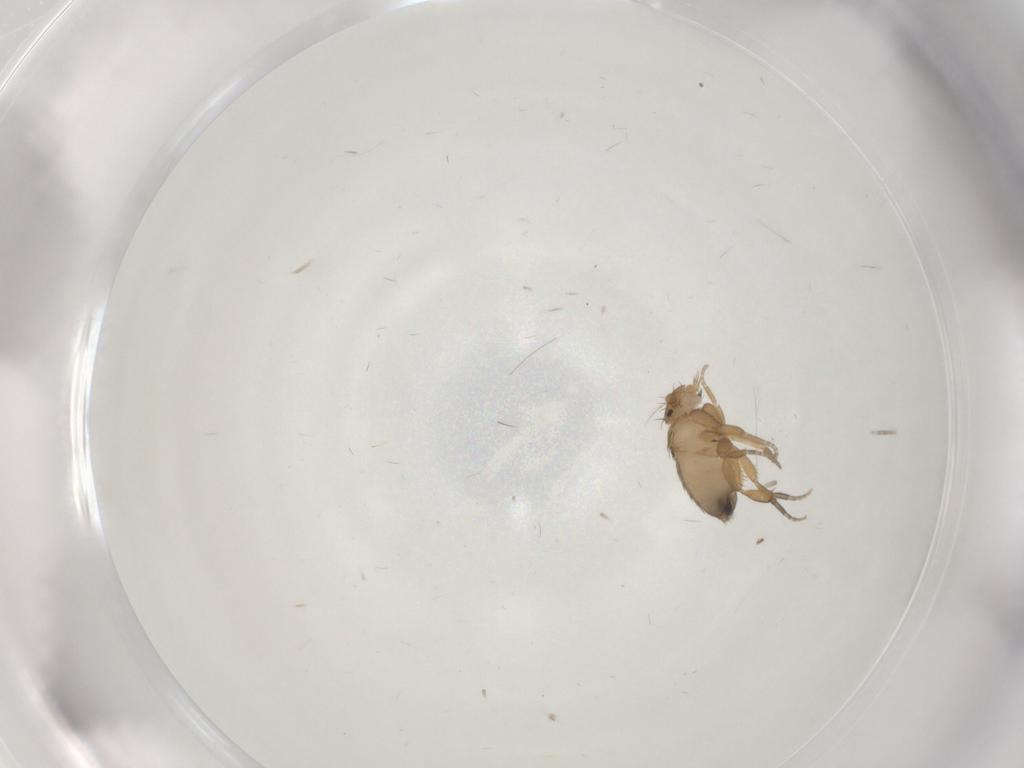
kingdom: Animalia
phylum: Arthropoda
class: Insecta
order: Diptera
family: Psychodidae
